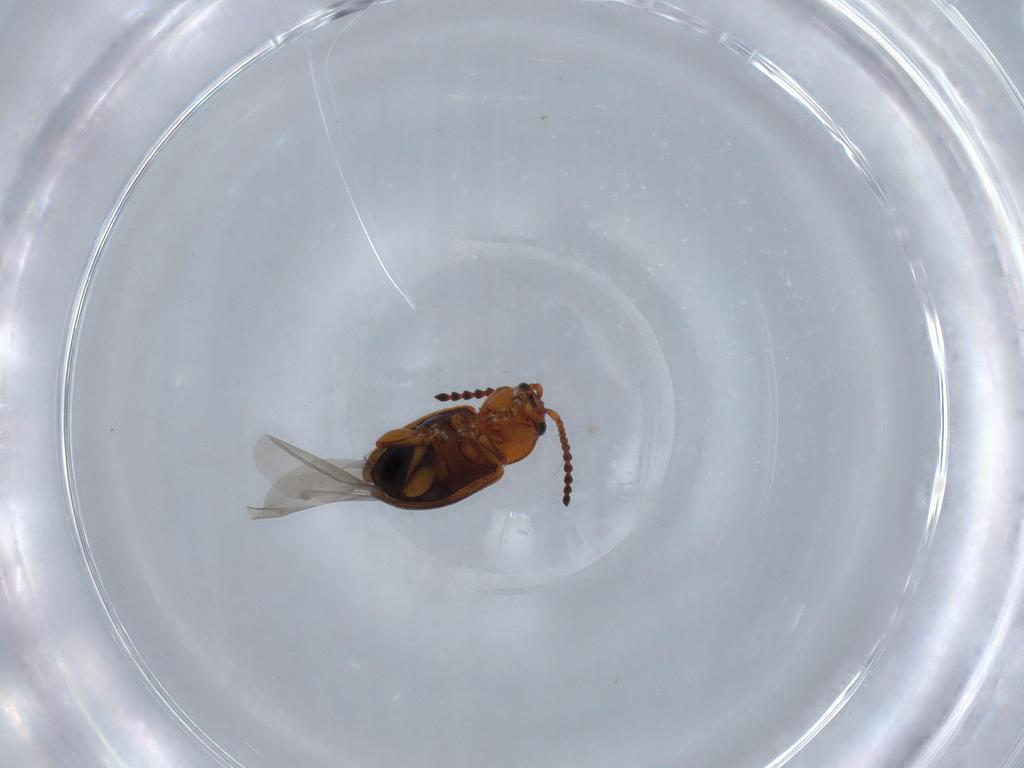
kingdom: Animalia
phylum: Arthropoda
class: Insecta
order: Coleoptera
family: Chrysomelidae
